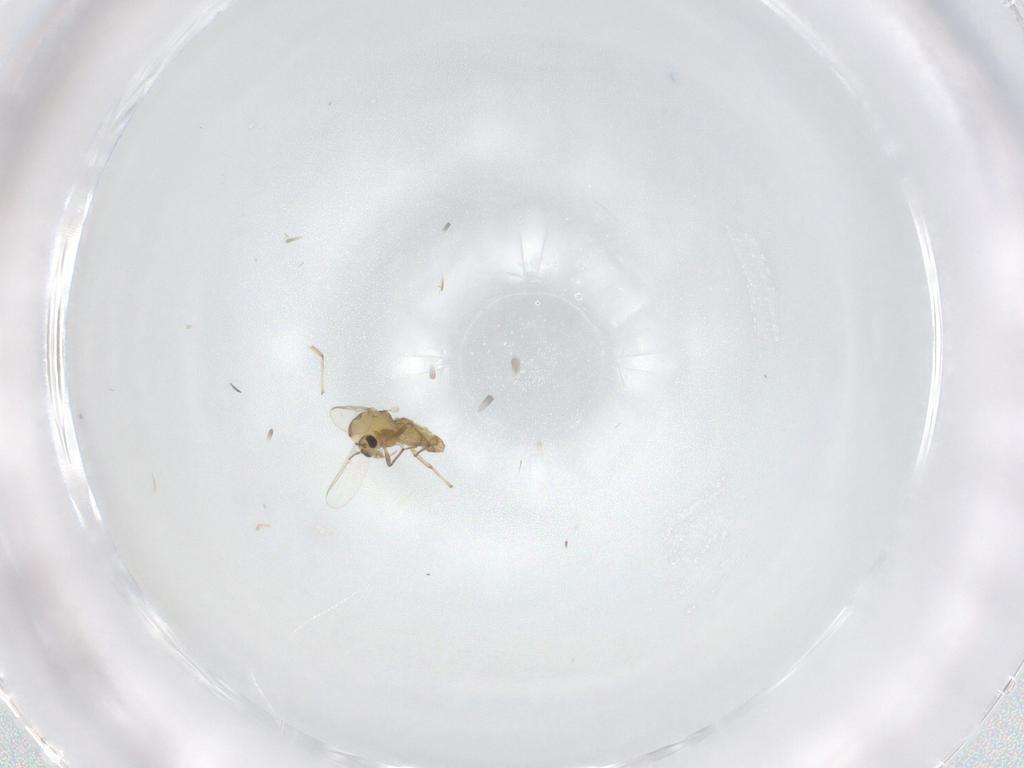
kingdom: Animalia
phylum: Arthropoda
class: Insecta
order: Diptera
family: Chironomidae
